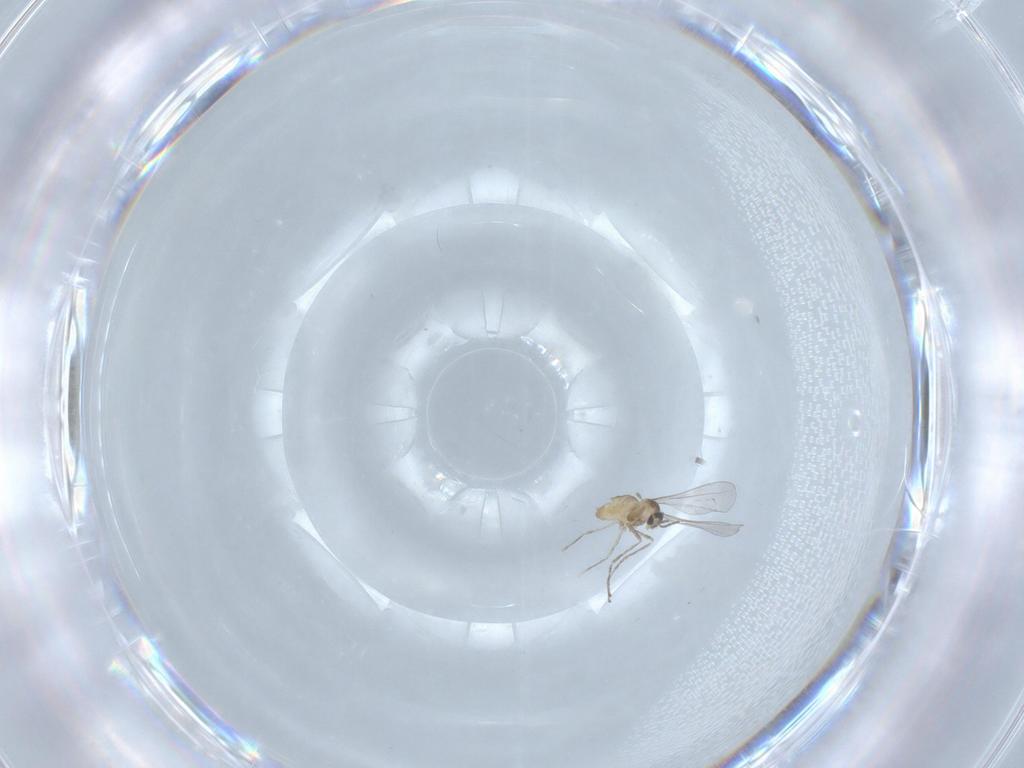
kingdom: Animalia
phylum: Arthropoda
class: Insecta
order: Diptera
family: Cecidomyiidae
